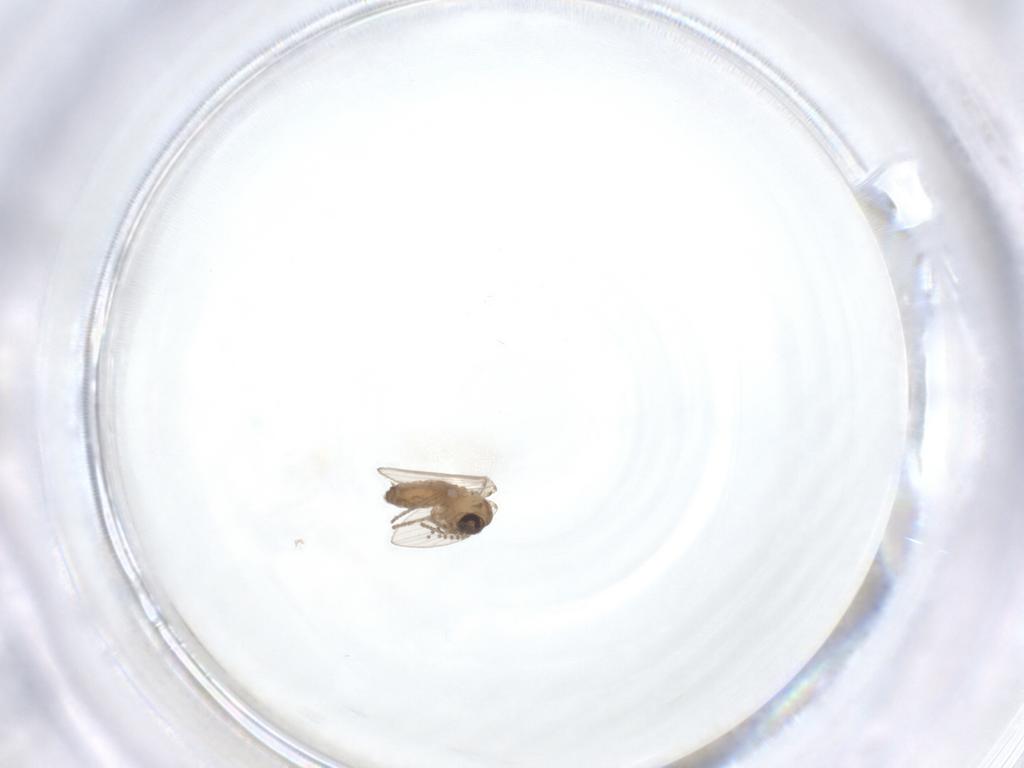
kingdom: Animalia
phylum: Arthropoda
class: Insecta
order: Diptera
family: Psychodidae
